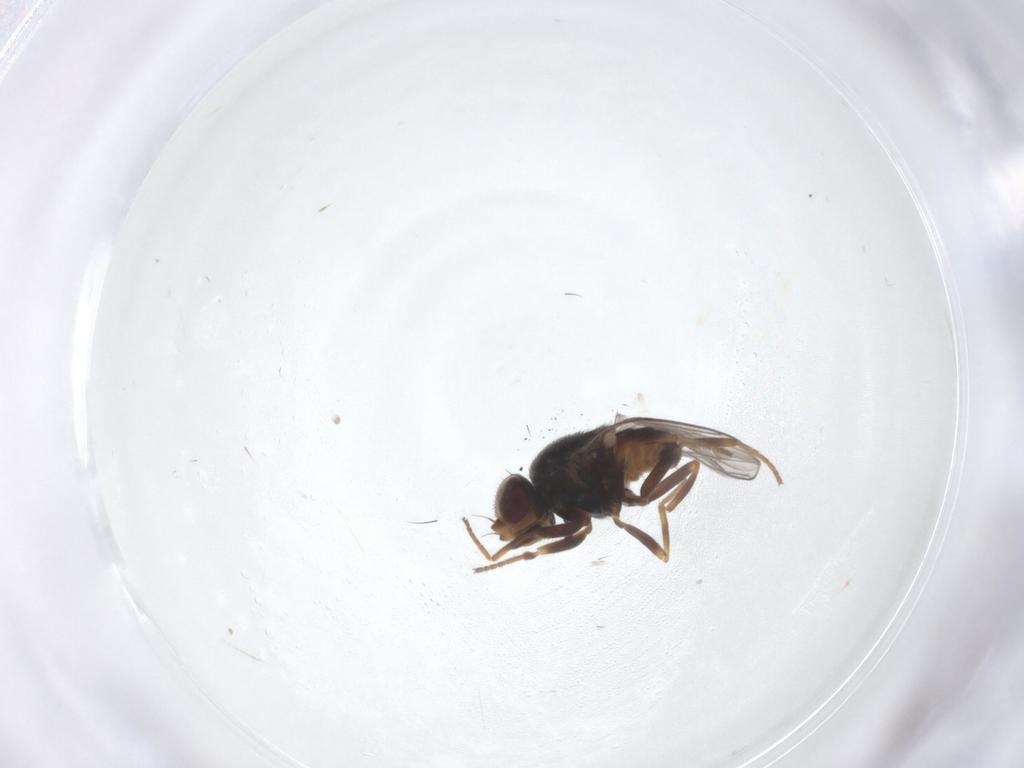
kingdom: Animalia
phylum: Arthropoda
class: Insecta
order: Diptera
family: Chloropidae
